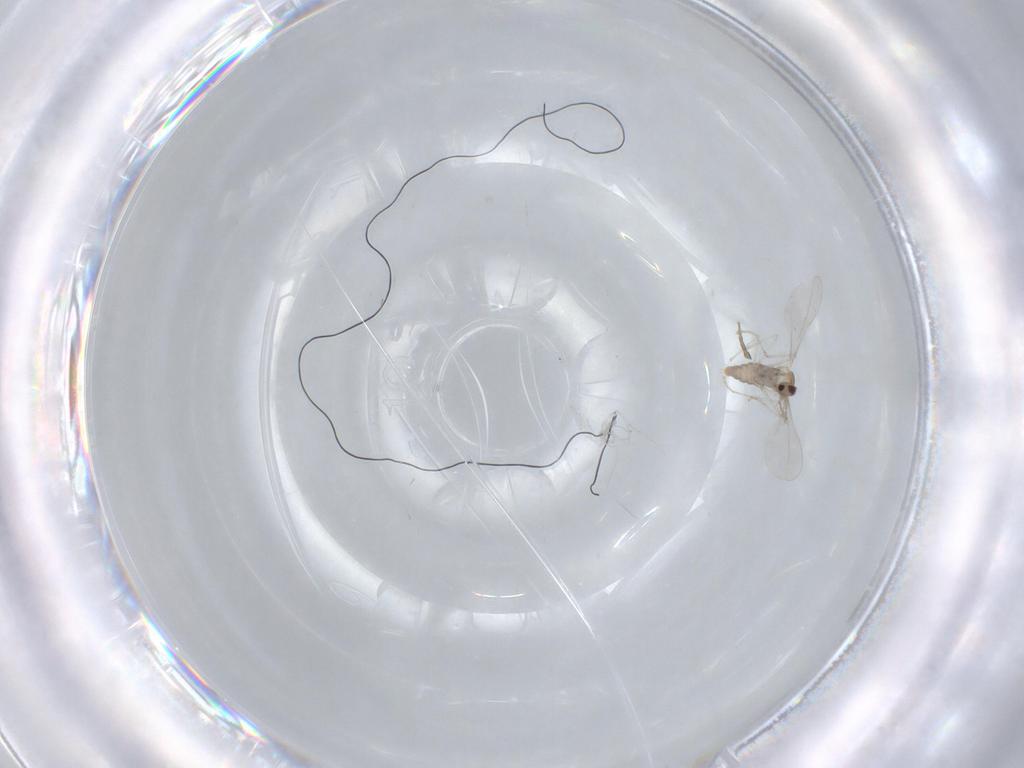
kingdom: Animalia
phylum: Arthropoda
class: Insecta
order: Diptera
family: Cecidomyiidae
